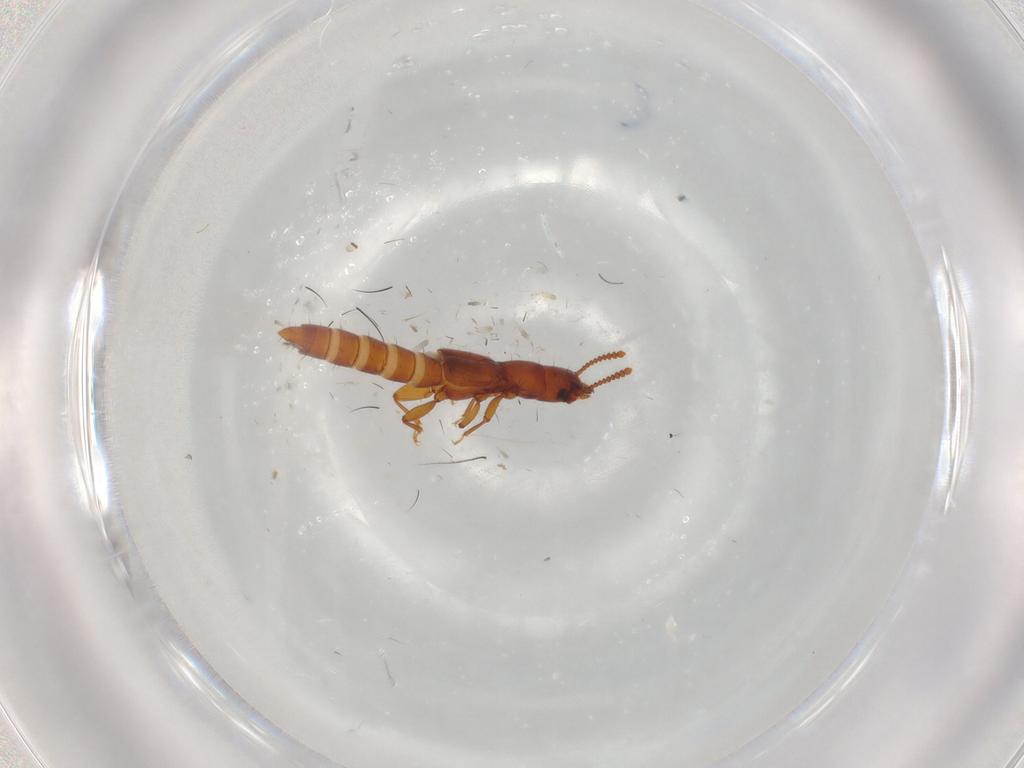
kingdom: Animalia
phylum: Arthropoda
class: Insecta
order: Coleoptera
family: Staphylinidae
